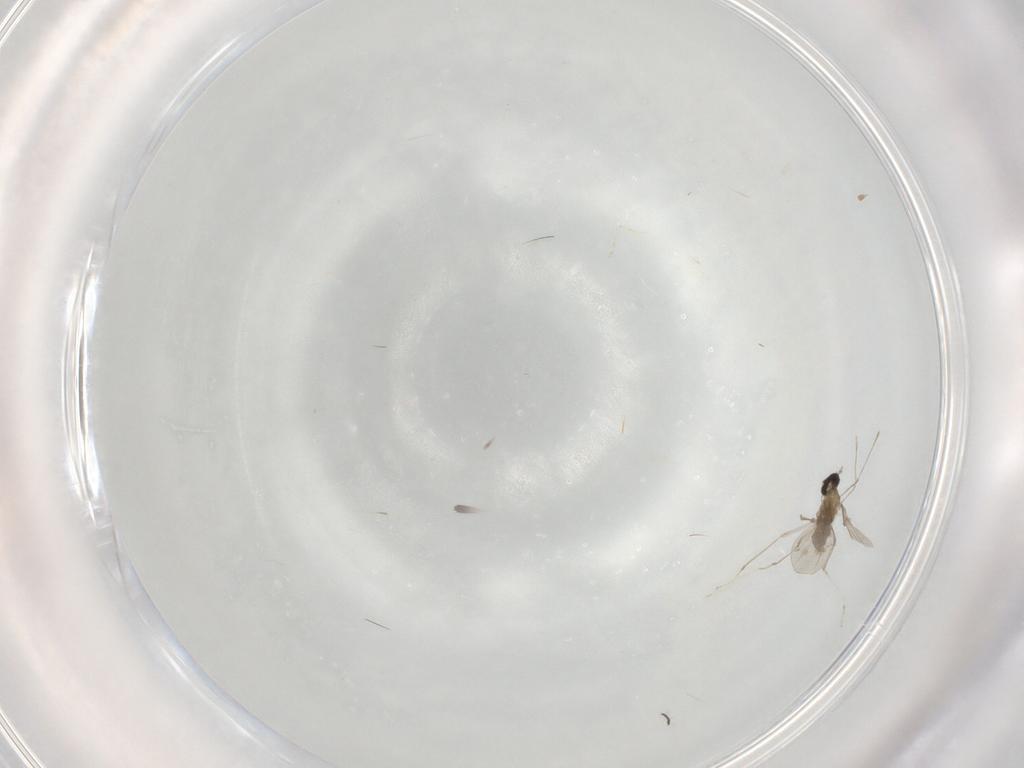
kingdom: Animalia
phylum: Arthropoda
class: Insecta
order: Diptera
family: Cecidomyiidae
